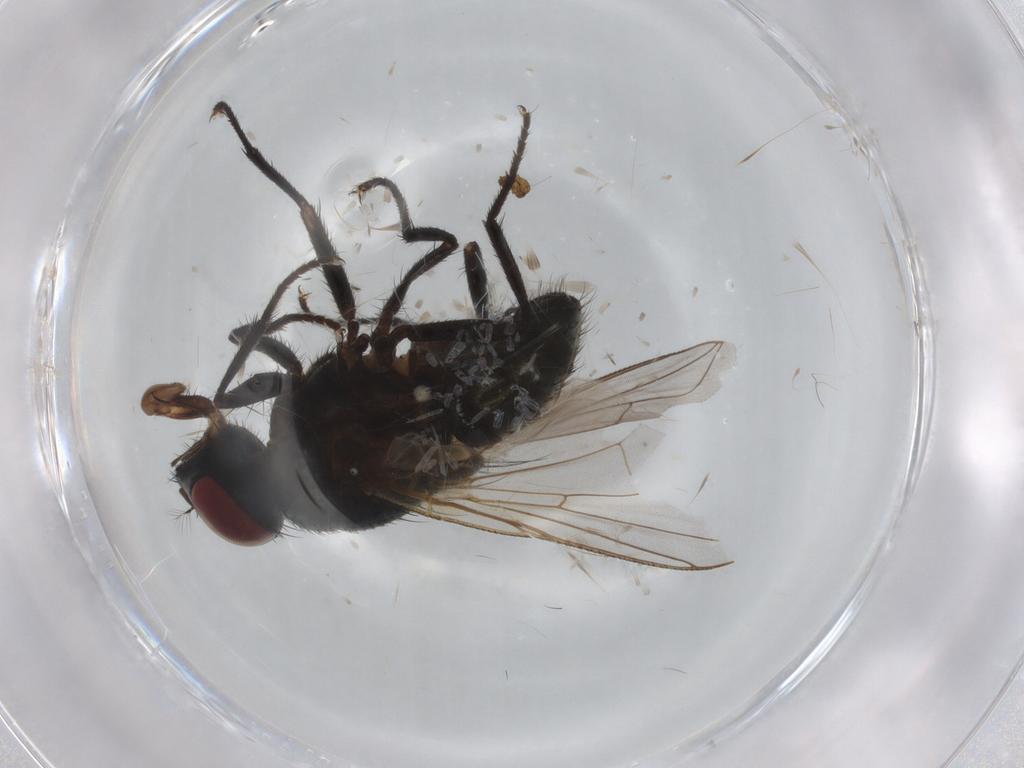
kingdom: Animalia
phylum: Arthropoda
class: Insecta
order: Diptera
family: Muscidae
